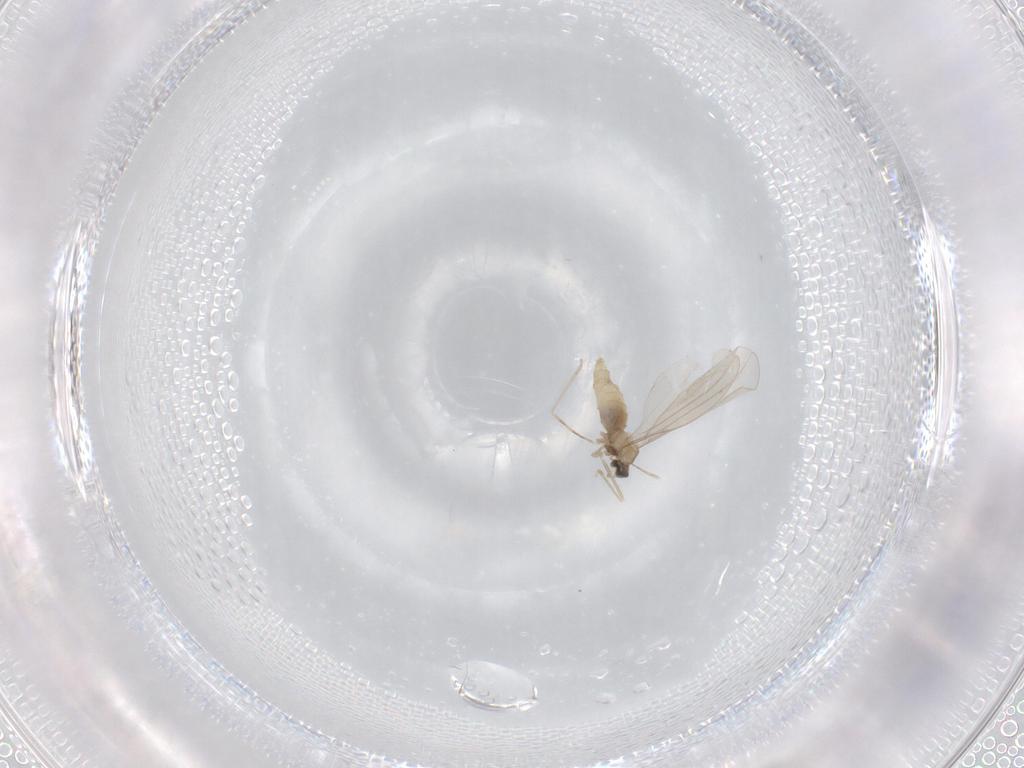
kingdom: Animalia
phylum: Arthropoda
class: Insecta
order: Diptera
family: Cecidomyiidae
